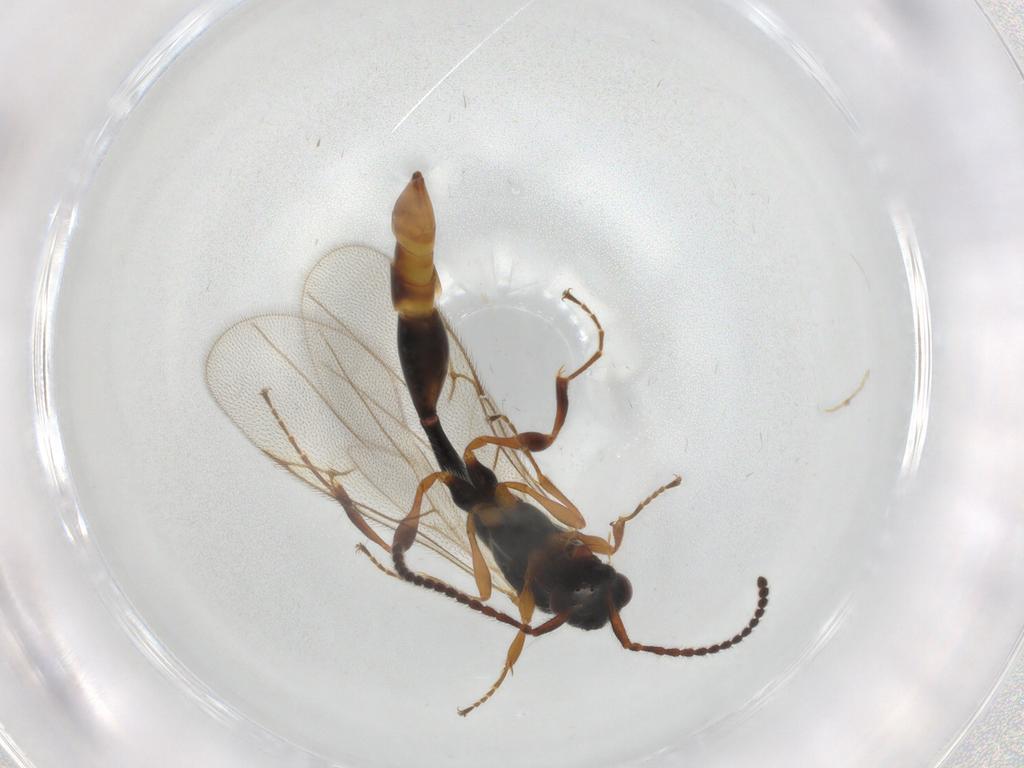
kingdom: Animalia
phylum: Arthropoda
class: Insecta
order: Hymenoptera
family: Diapriidae
